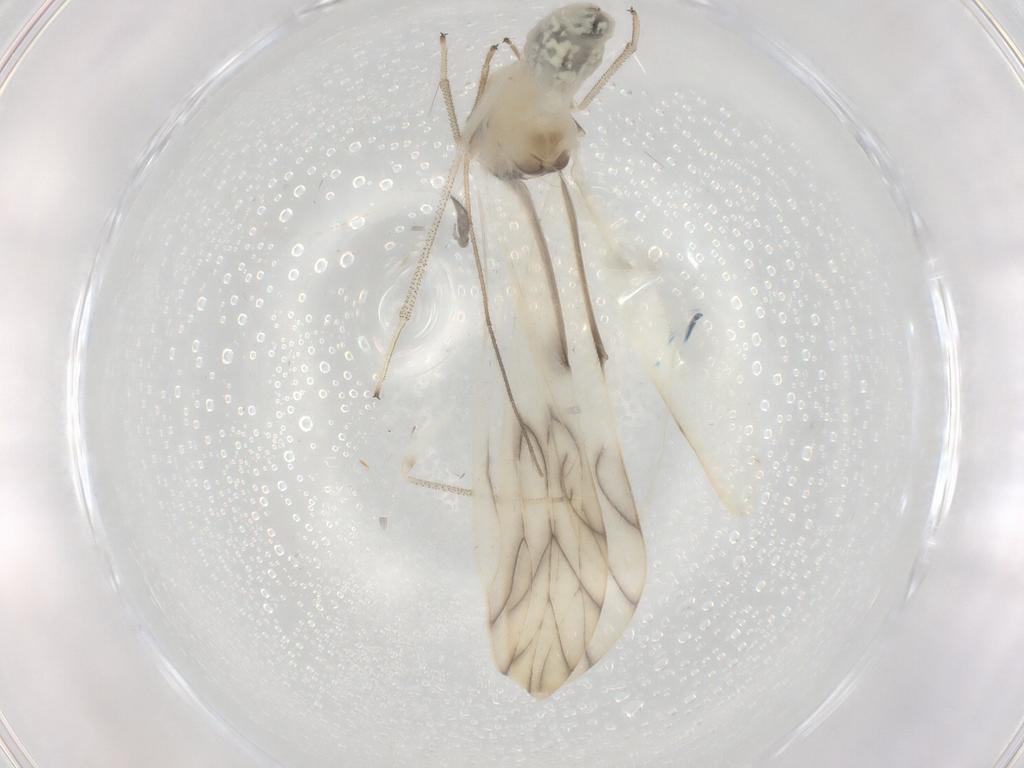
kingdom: Animalia
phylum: Arthropoda
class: Insecta
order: Psocodea
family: Caeciliusidae
